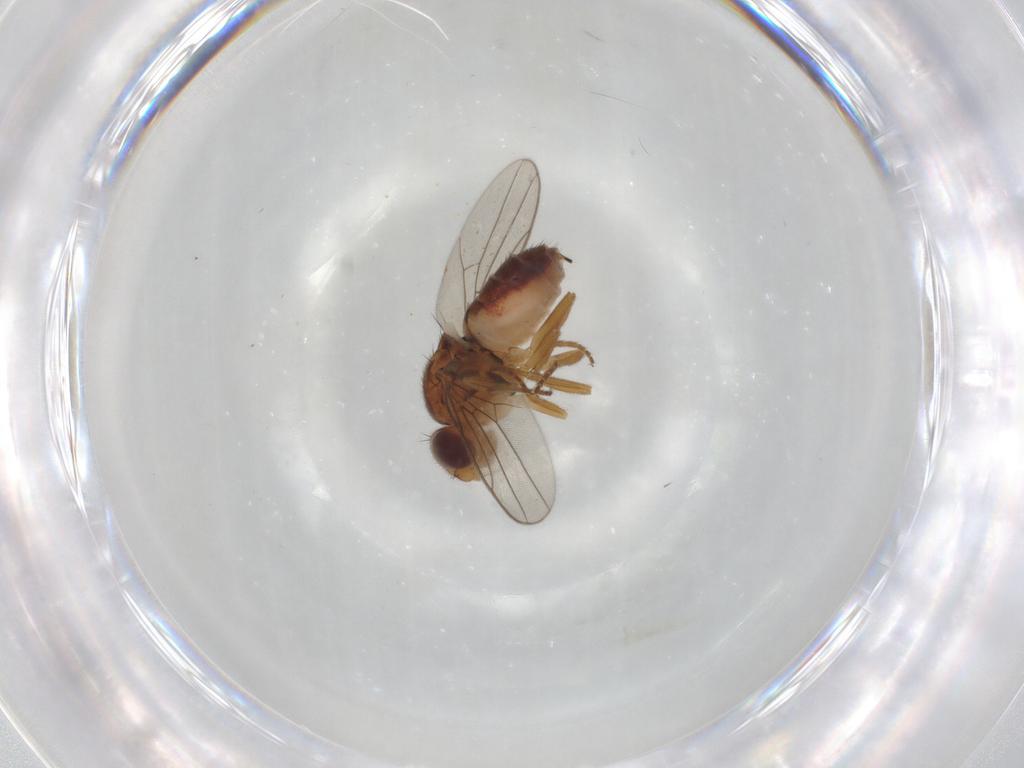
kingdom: Animalia
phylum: Arthropoda
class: Insecta
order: Diptera
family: Chloropidae
